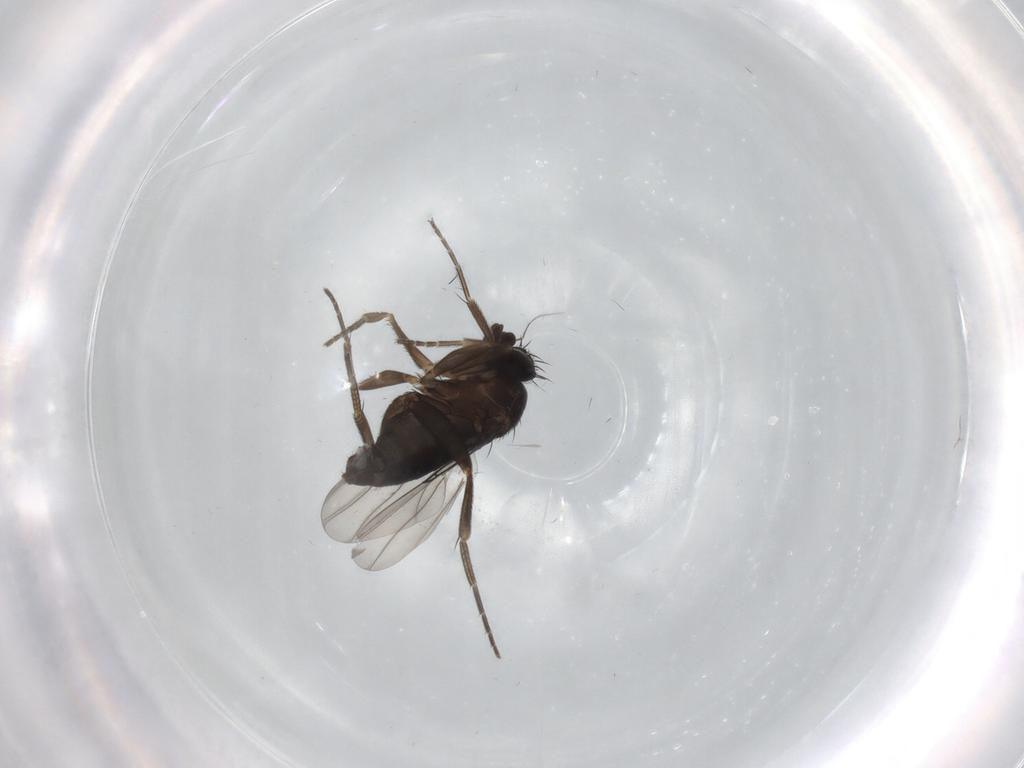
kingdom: Animalia
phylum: Arthropoda
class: Insecta
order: Diptera
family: Phoridae
